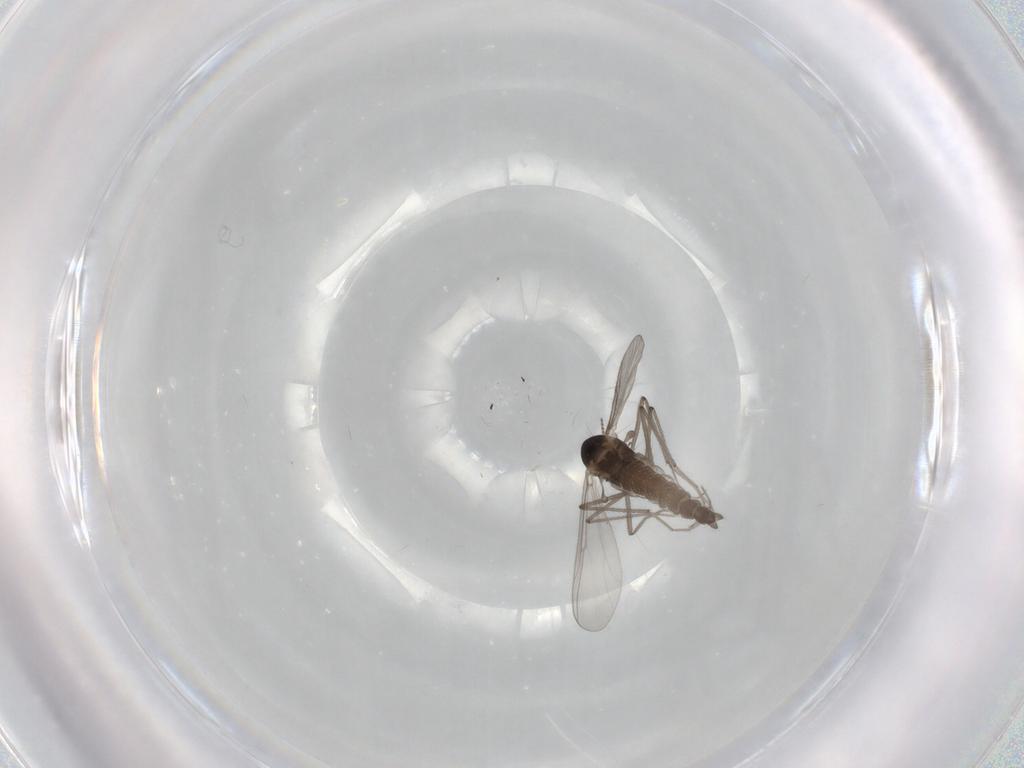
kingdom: Animalia
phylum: Arthropoda
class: Insecta
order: Diptera
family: Chironomidae
